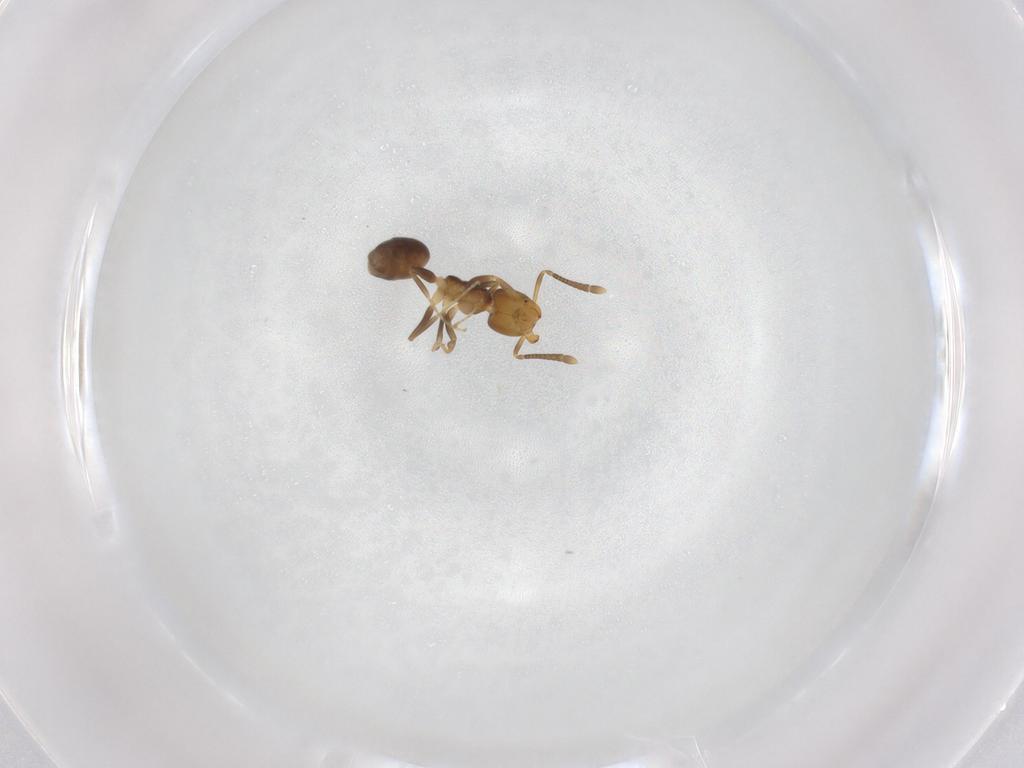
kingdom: Animalia
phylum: Arthropoda
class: Insecta
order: Hymenoptera
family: Formicidae
